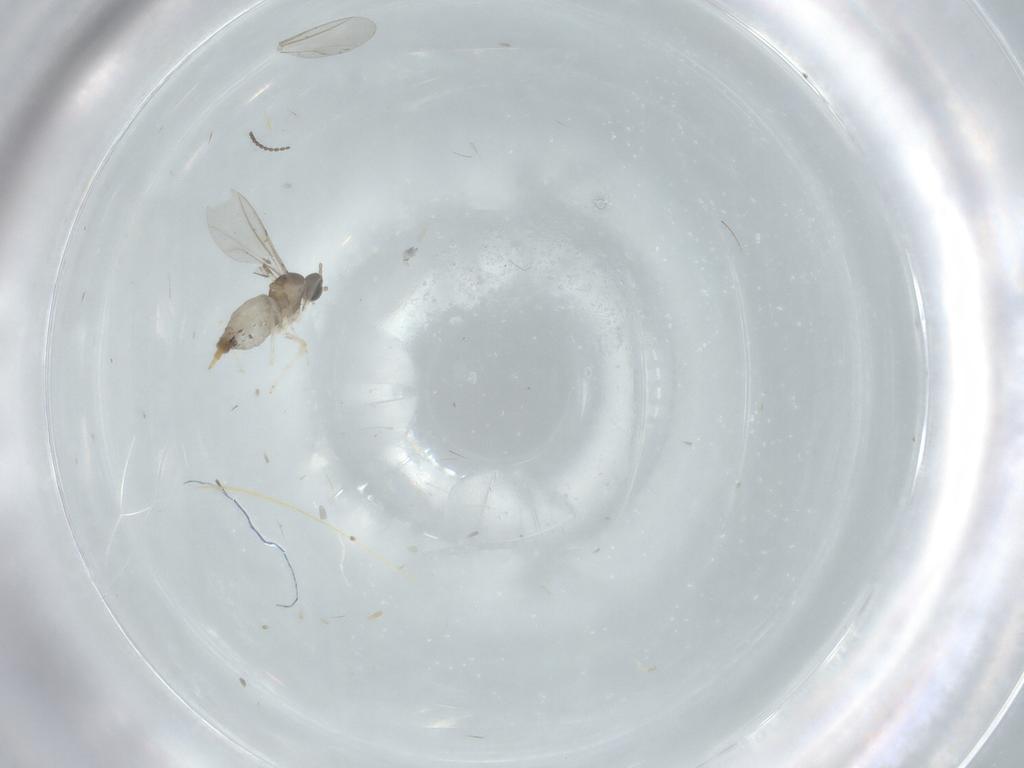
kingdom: Animalia
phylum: Arthropoda
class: Insecta
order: Diptera
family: Cecidomyiidae
